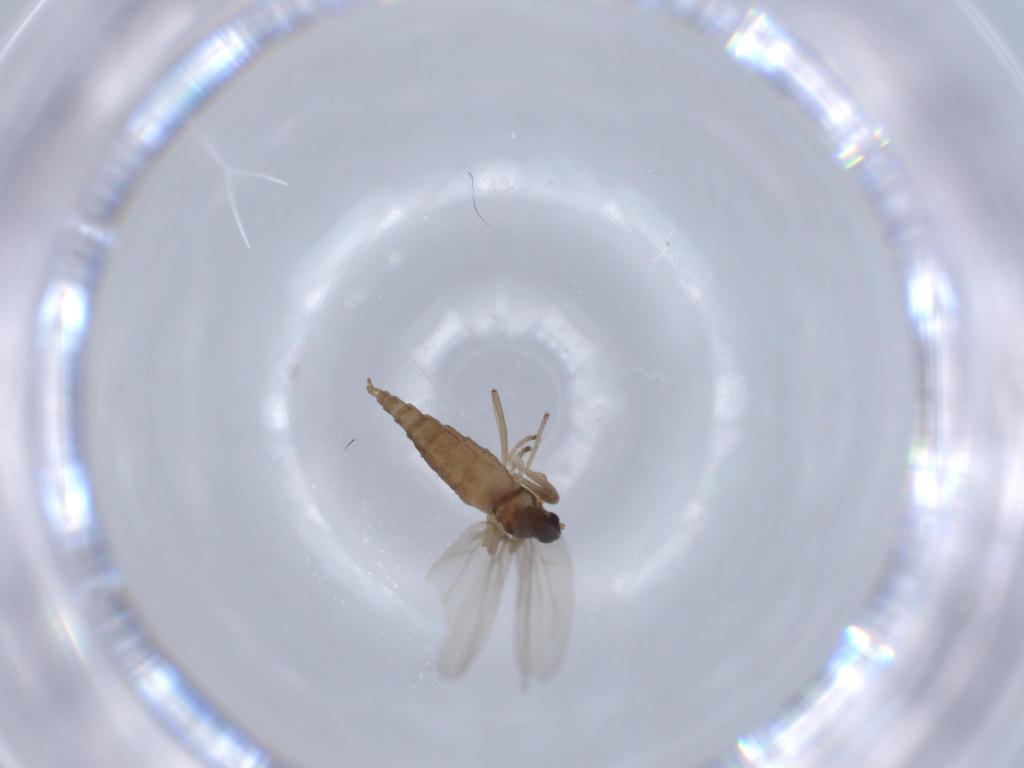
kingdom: Animalia
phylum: Arthropoda
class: Insecta
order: Diptera
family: Cecidomyiidae
